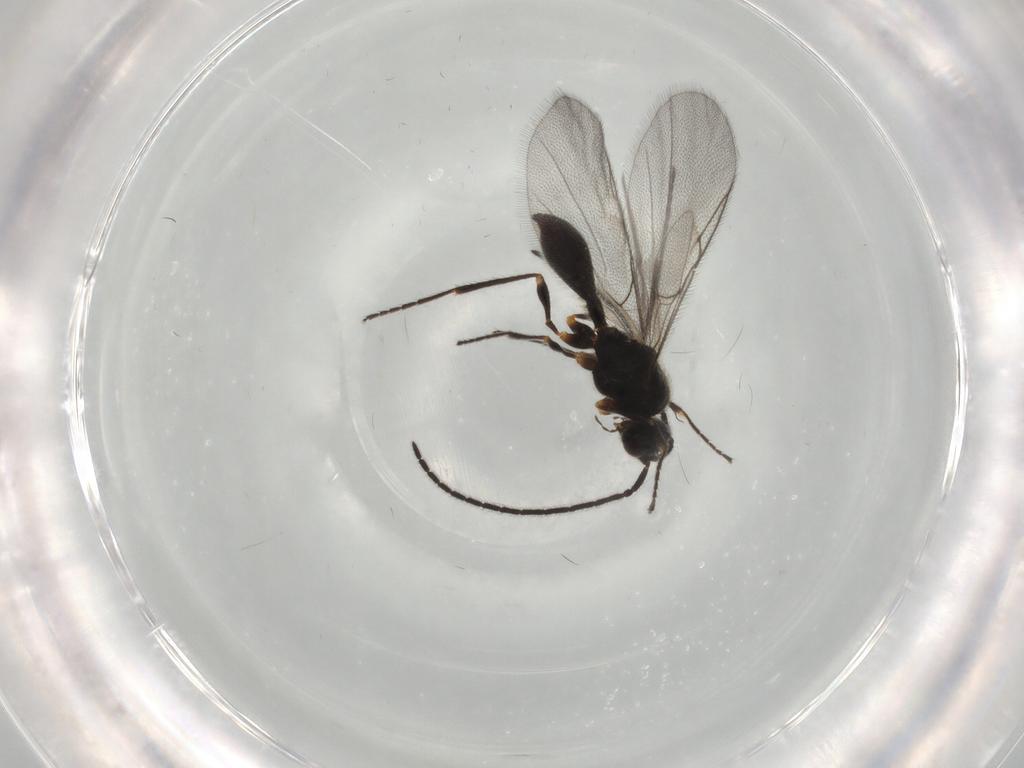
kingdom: Animalia
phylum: Arthropoda
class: Insecta
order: Hymenoptera
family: Diapriidae
